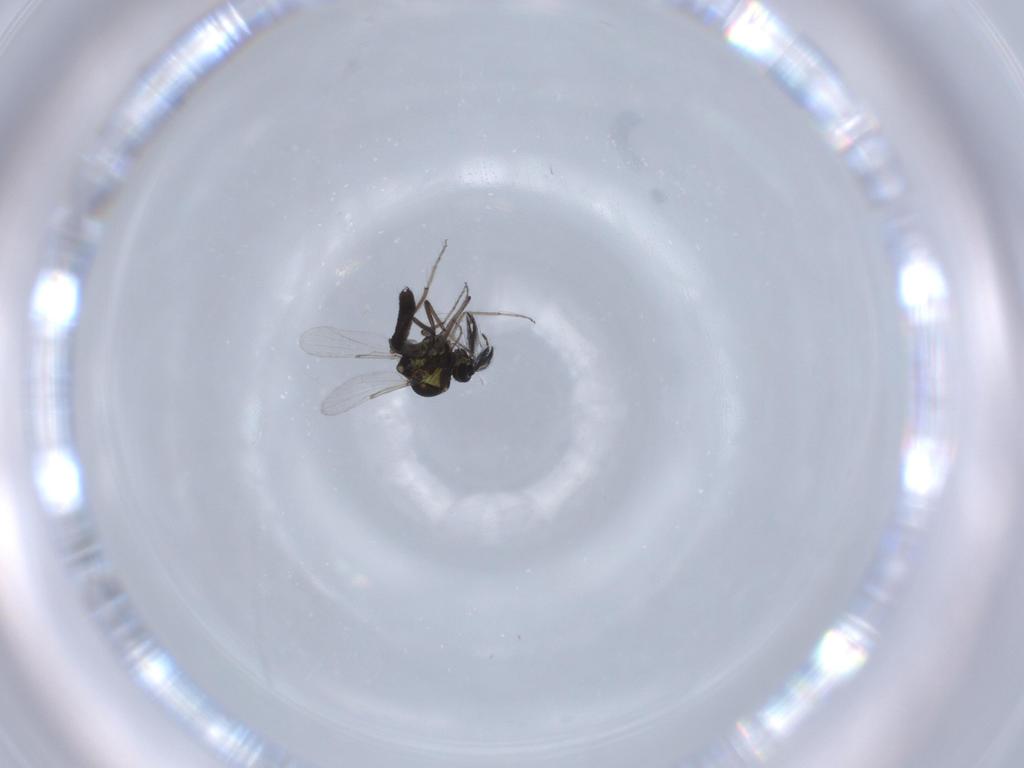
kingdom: Animalia
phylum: Arthropoda
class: Insecta
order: Diptera
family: Ceratopogonidae
